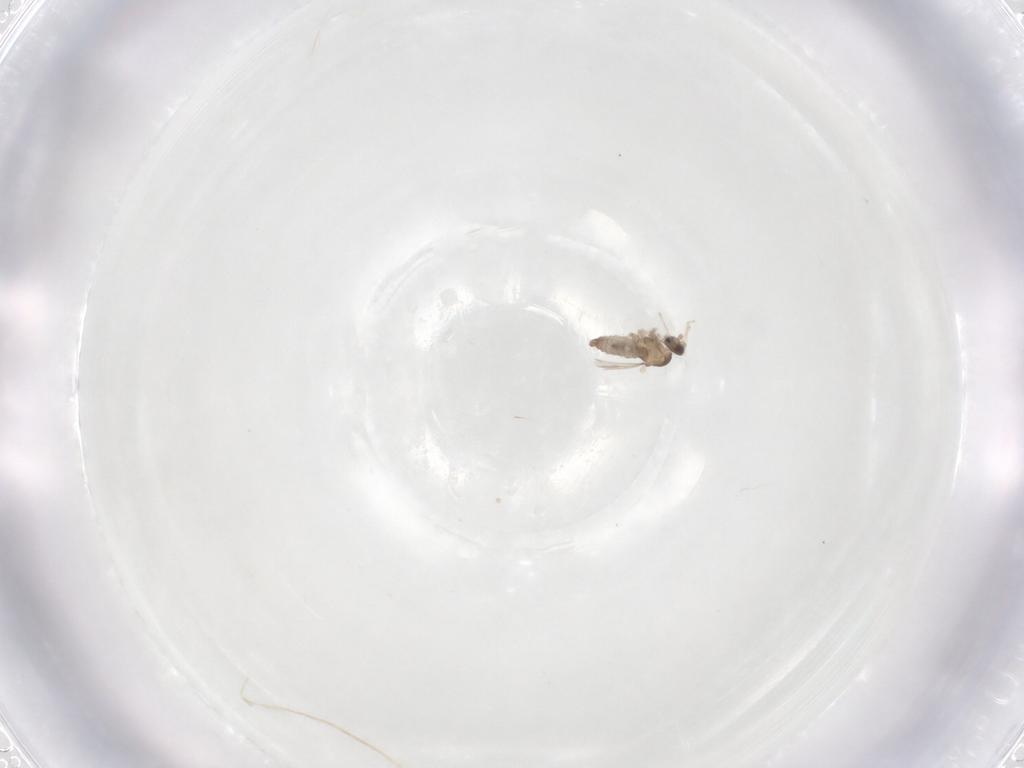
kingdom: Animalia
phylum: Arthropoda
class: Insecta
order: Diptera
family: Cecidomyiidae
